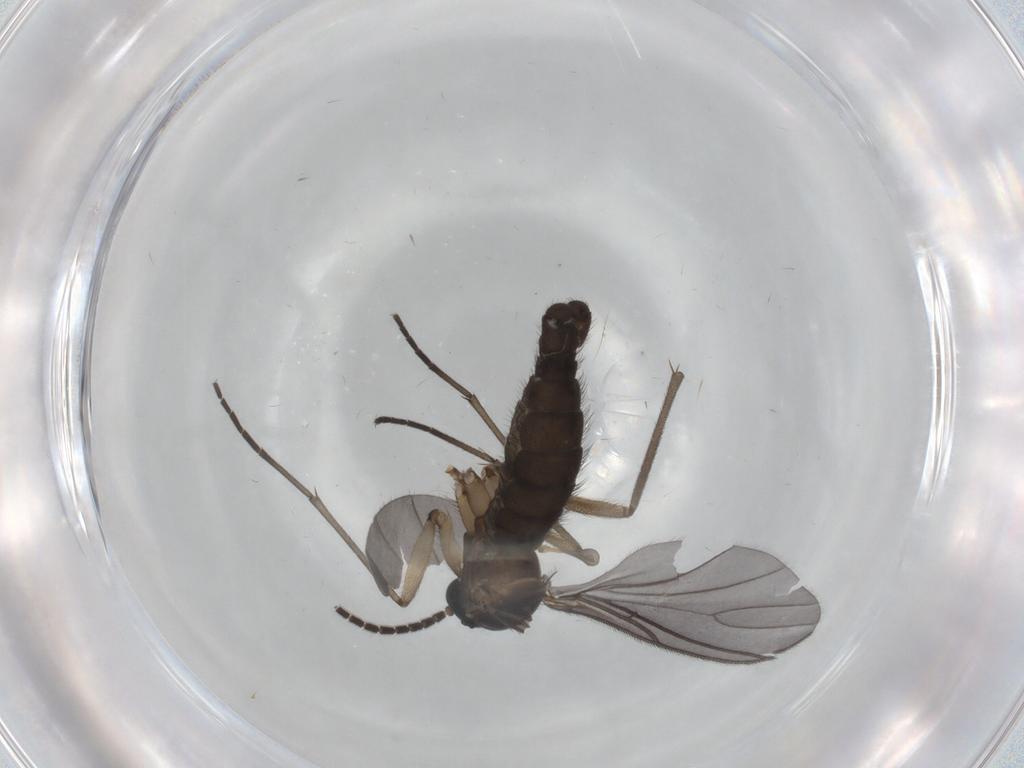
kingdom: Animalia
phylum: Arthropoda
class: Insecta
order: Diptera
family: Sciaridae
